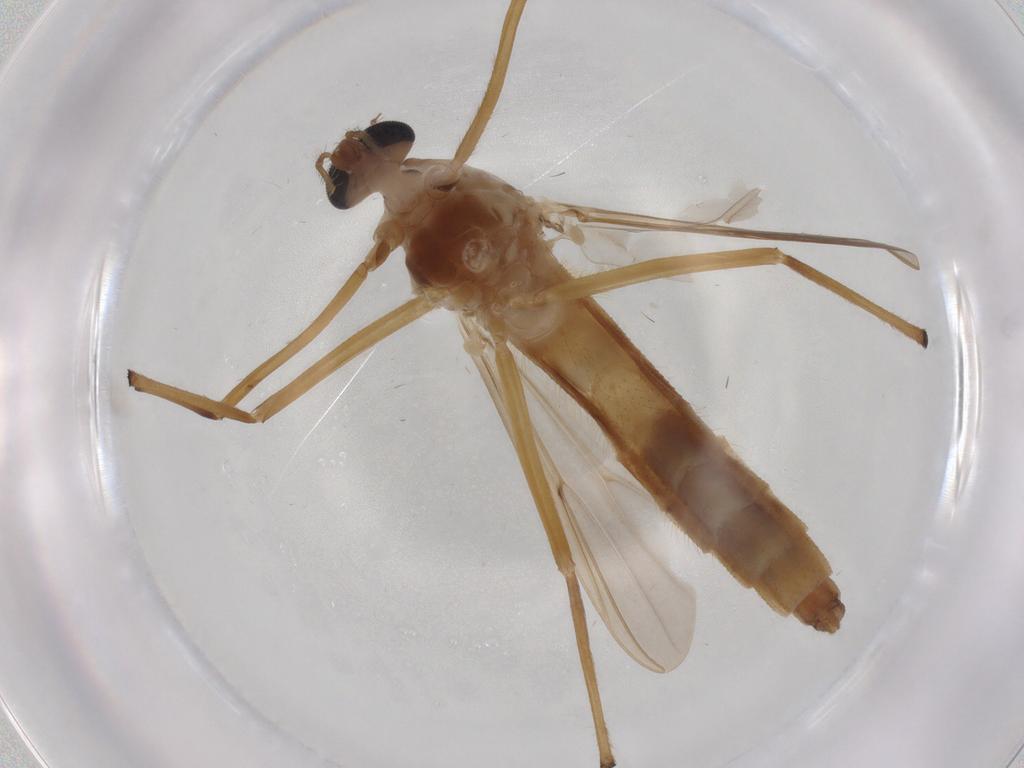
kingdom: Animalia
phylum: Arthropoda
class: Insecta
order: Diptera
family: Chironomidae
